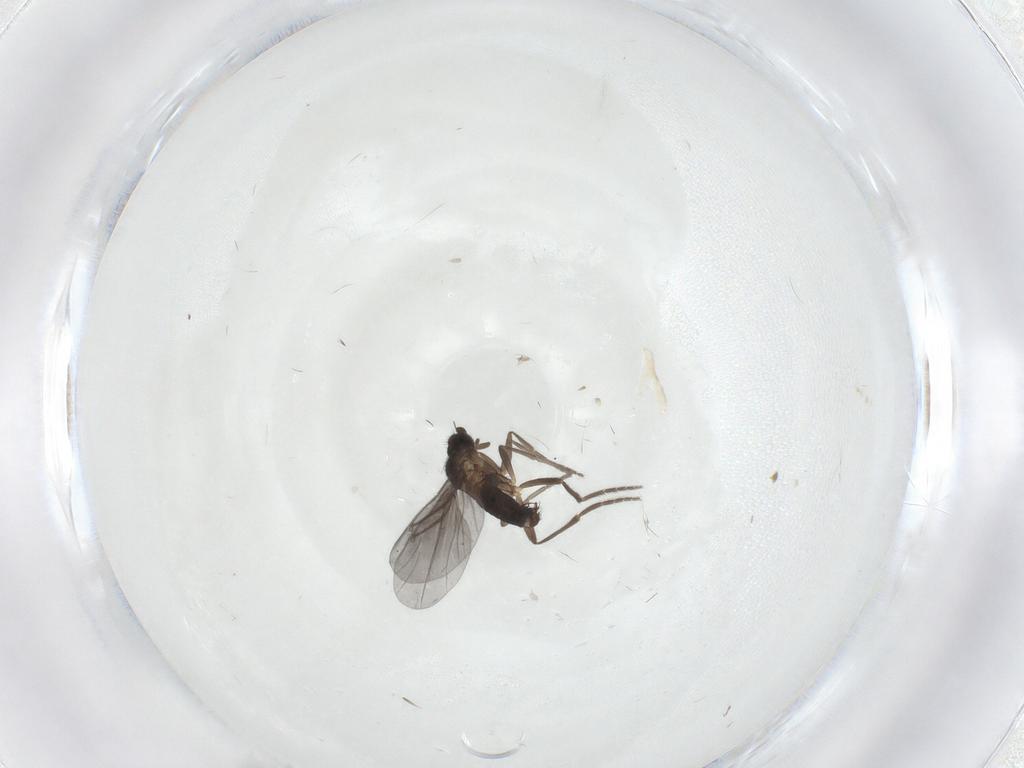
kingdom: Animalia
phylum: Arthropoda
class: Insecta
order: Diptera
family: Phoridae
